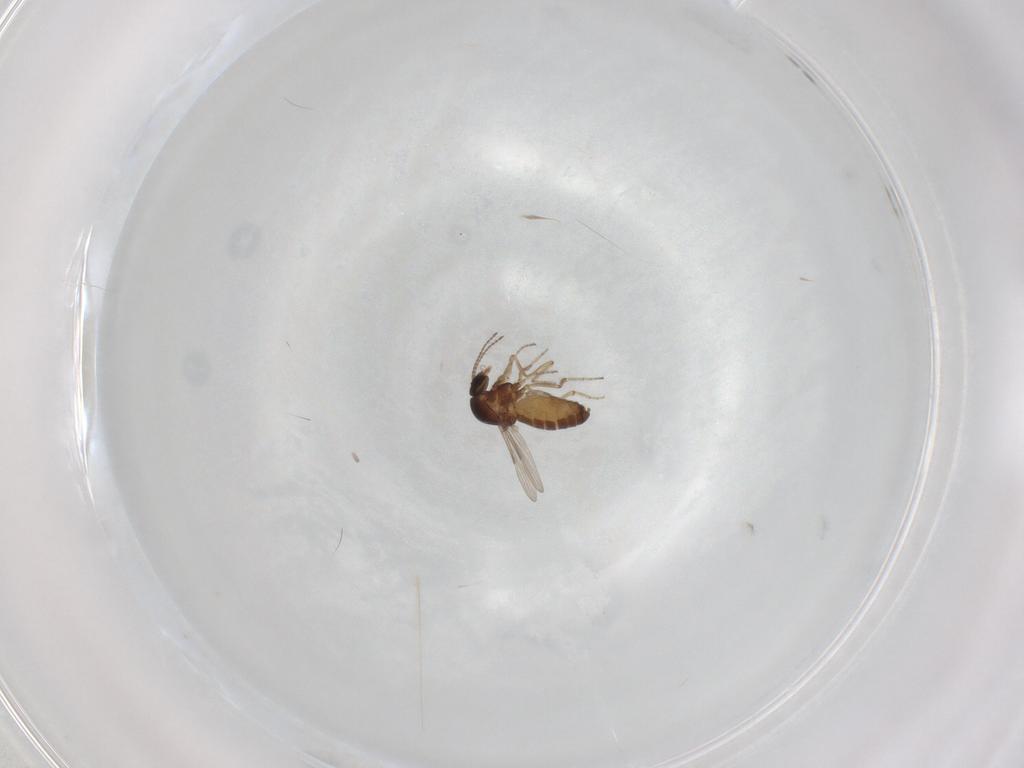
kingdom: Animalia
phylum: Arthropoda
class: Insecta
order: Diptera
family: Ceratopogonidae
